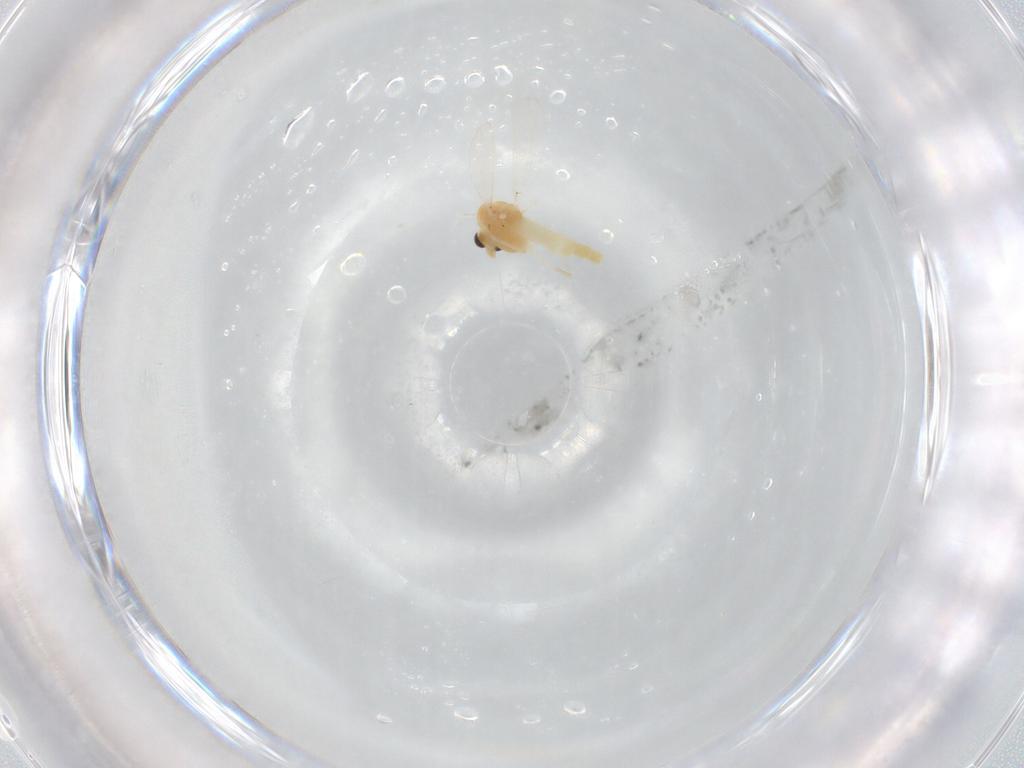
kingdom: Animalia
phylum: Arthropoda
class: Insecta
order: Diptera
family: Chironomidae
